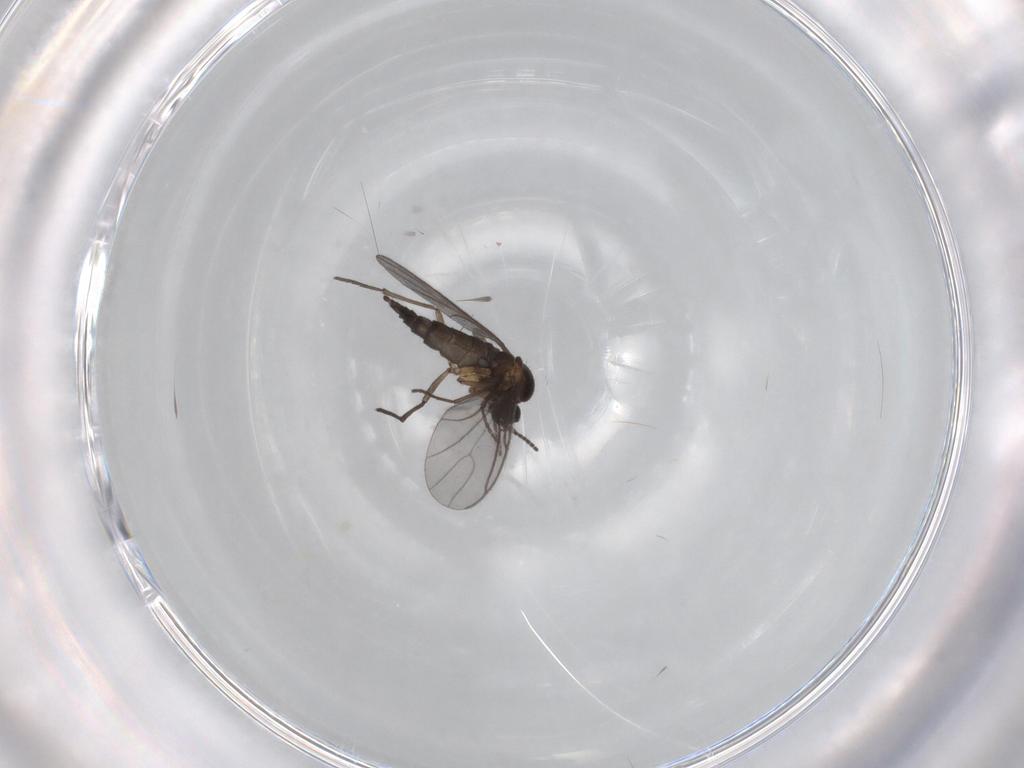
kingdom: Animalia
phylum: Arthropoda
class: Insecta
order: Diptera
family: Sciaridae
